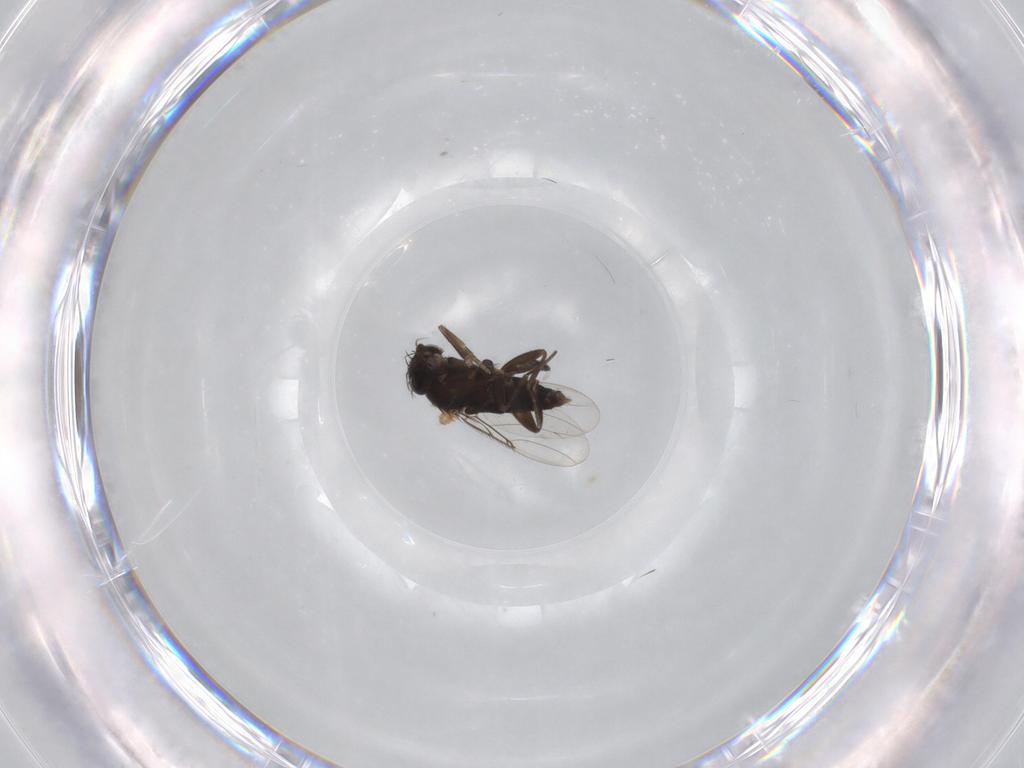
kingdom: Animalia
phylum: Arthropoda
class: Insecta
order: Diptera
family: Phoridae
